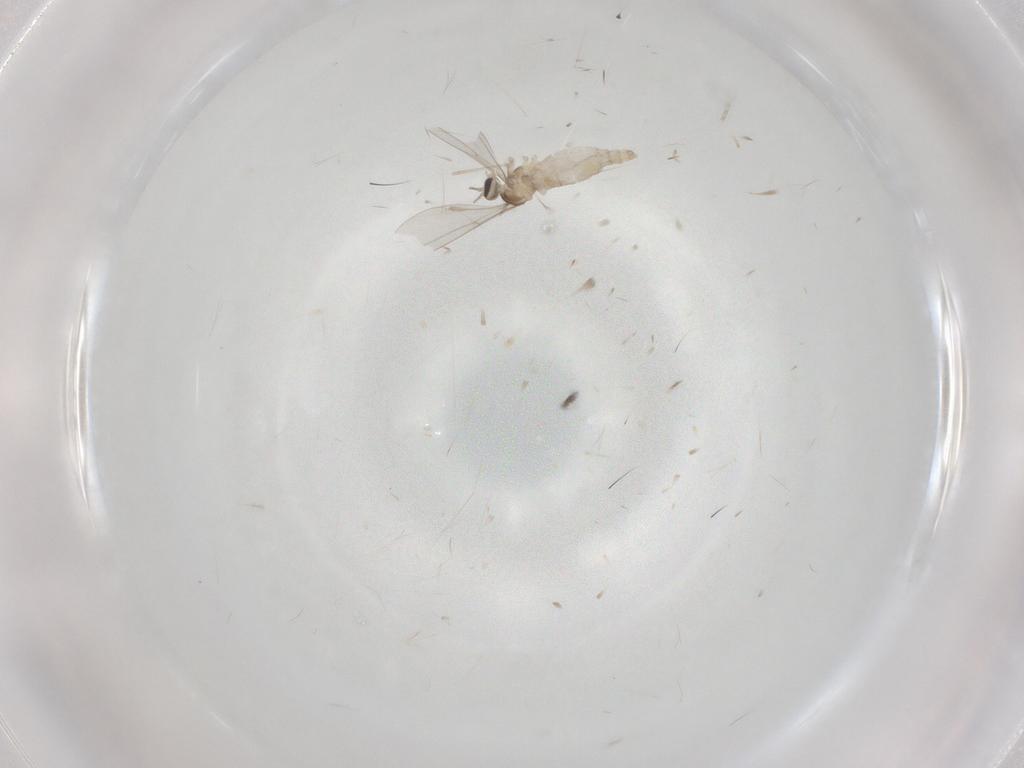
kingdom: Animalia
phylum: Arthropoda
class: Insecta
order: Diptera
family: Cecidomyiidae
